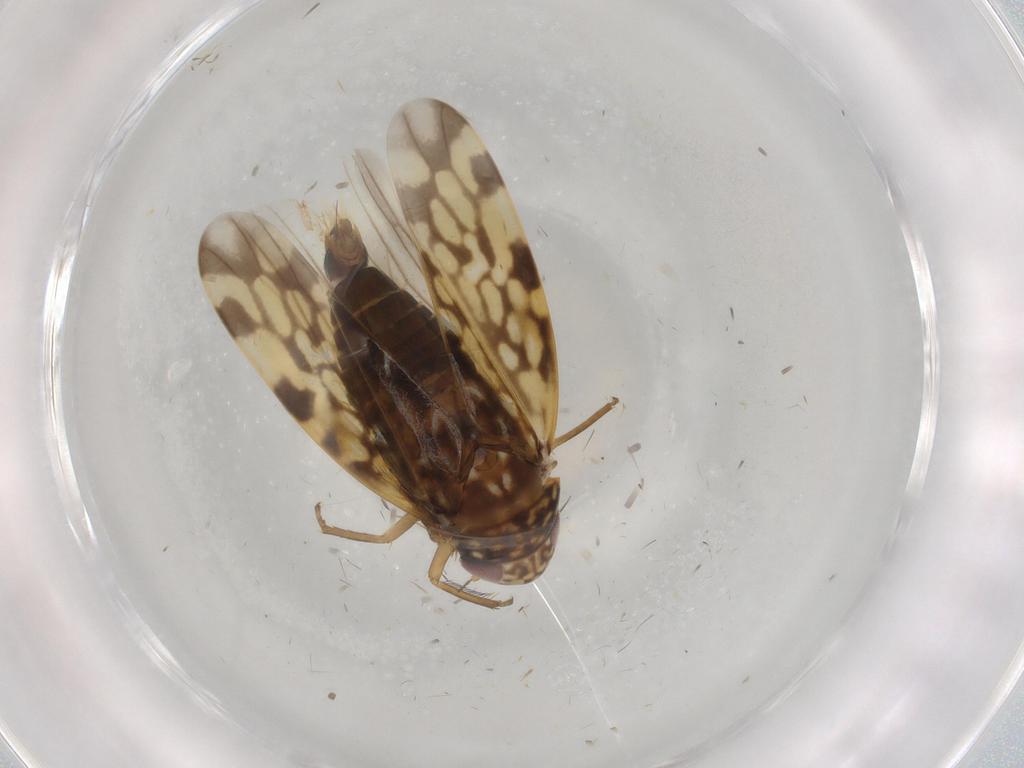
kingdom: Animalia
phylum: Arthropoda
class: Insecta
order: Hemiptera
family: Cicadellidae
